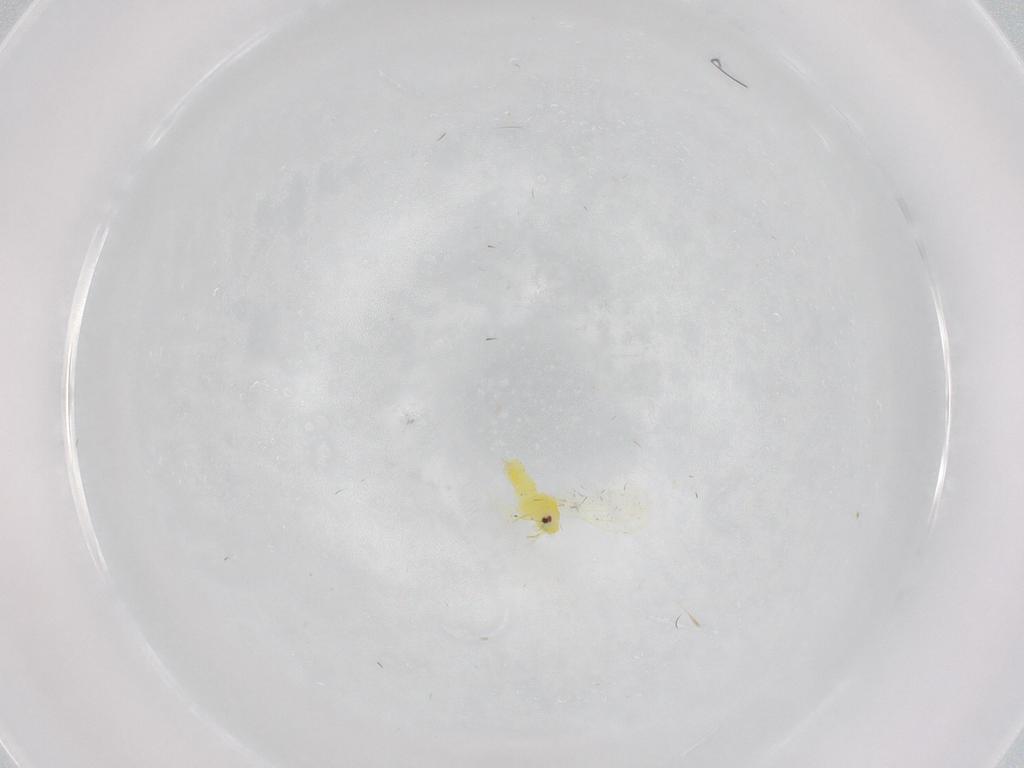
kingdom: Animalia
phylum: Arthropoda
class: Insecta
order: Hemiptera
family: Aleyrodidae
